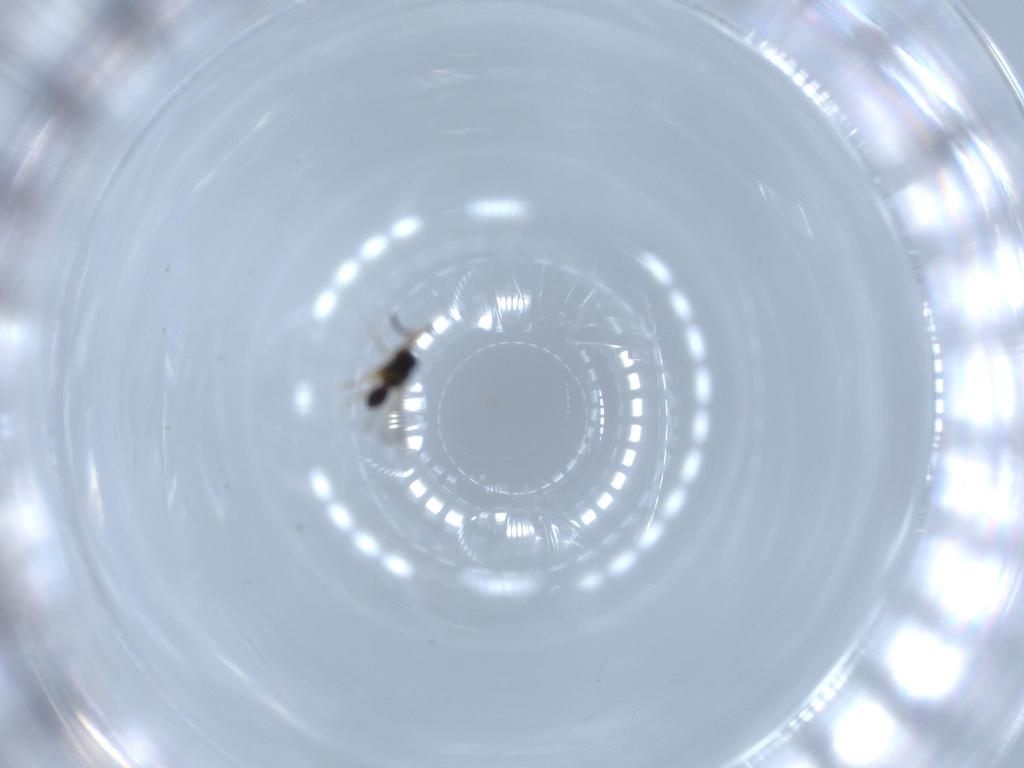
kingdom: Animalia
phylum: Arthropoda
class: Insecta
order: Hymenoptera
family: Formicidae
